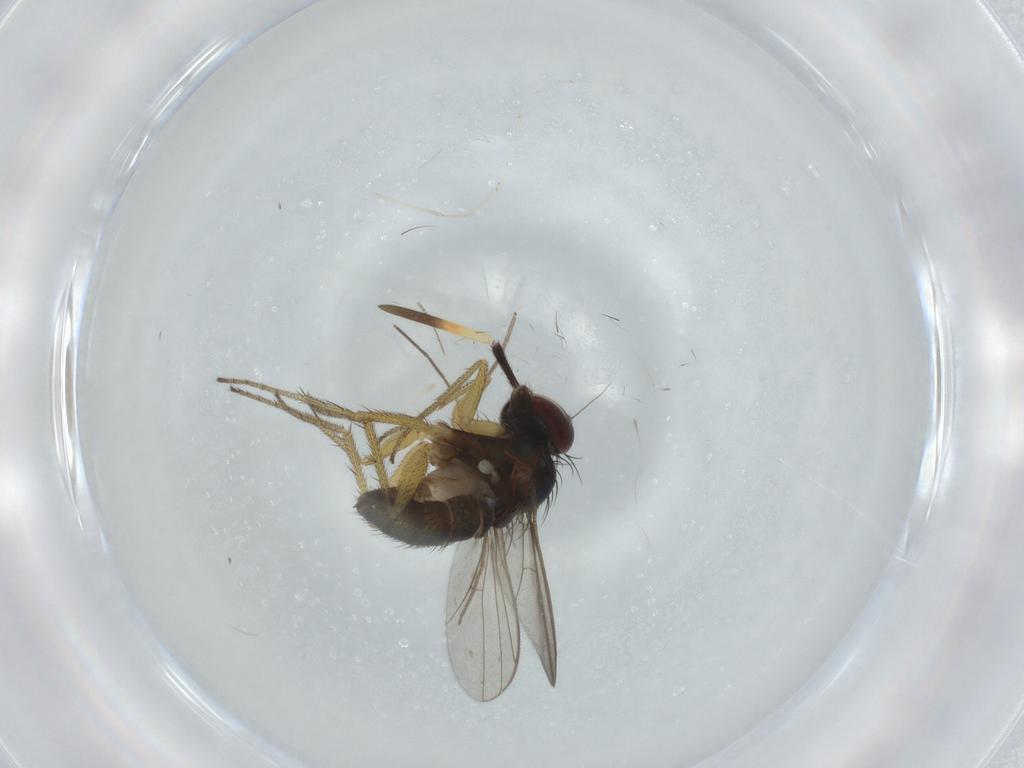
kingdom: Animalia
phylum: Arthropoda
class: Insecta
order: Diptera
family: Dolichopodidae
